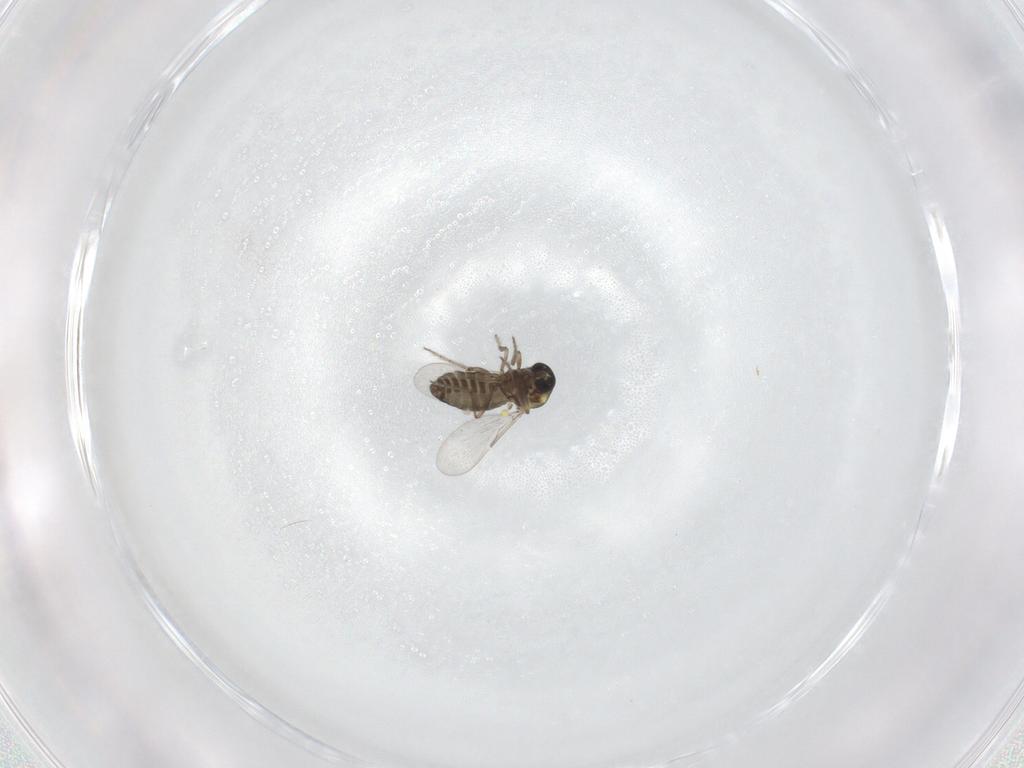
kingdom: Animalia
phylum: Arthropoda
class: Insecta
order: Diptera
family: Ceratopogonidae
